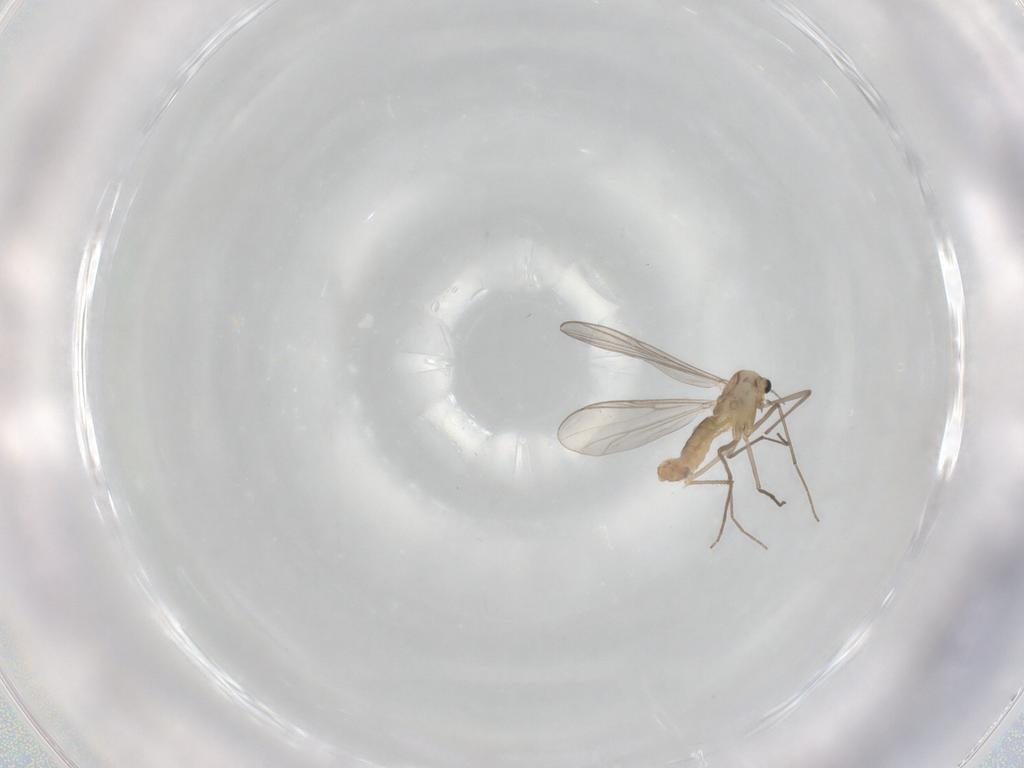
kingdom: Animalia
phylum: Arthropoda
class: Insecta
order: Diptera
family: Chironomidae
